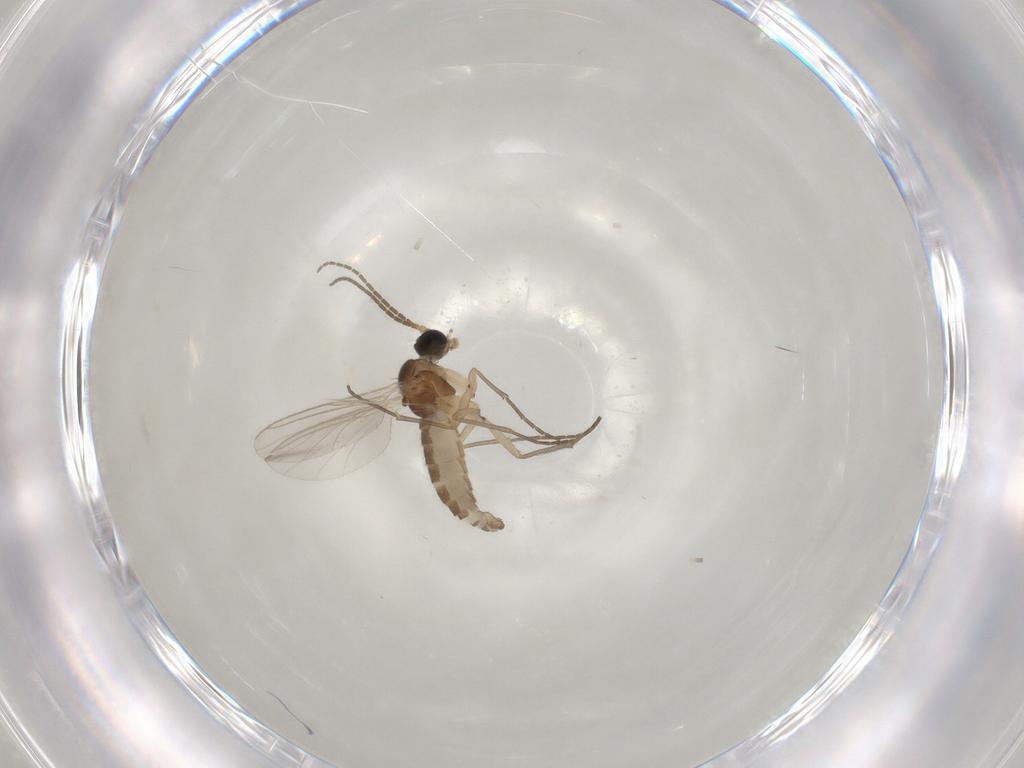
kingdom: Animalia
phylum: Arthropoda
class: Insecta
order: Diptera
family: Sciaridae
